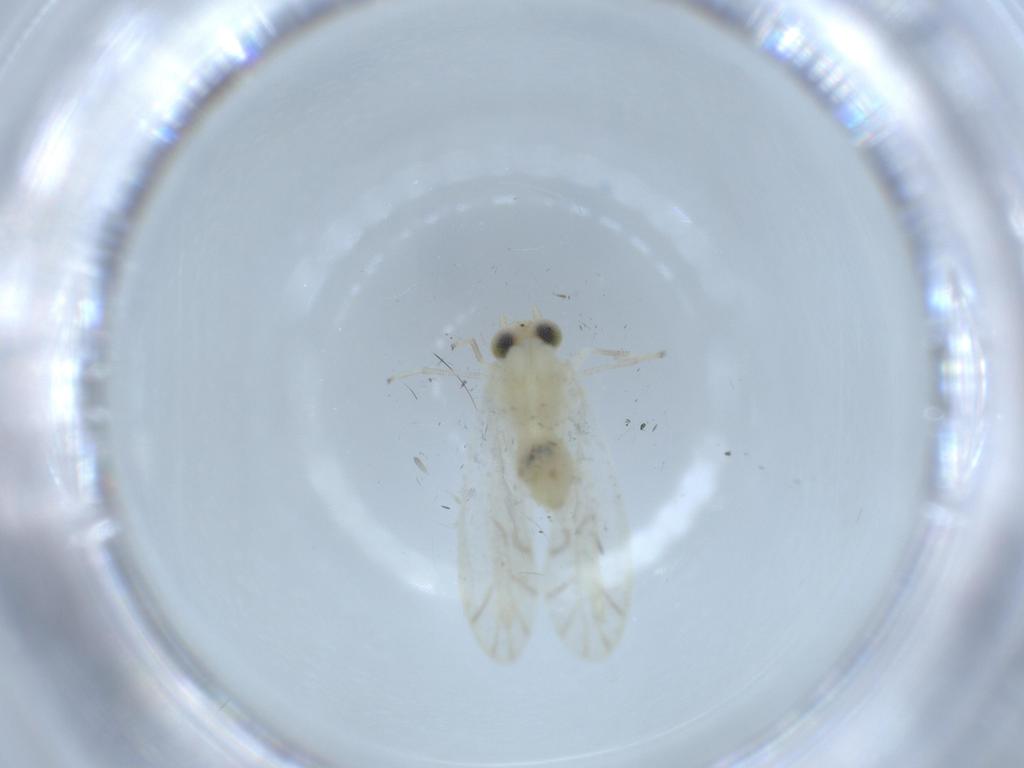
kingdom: Animalia
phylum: Arthropoda
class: Insecta
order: Psocodea
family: Caeciliusidae
